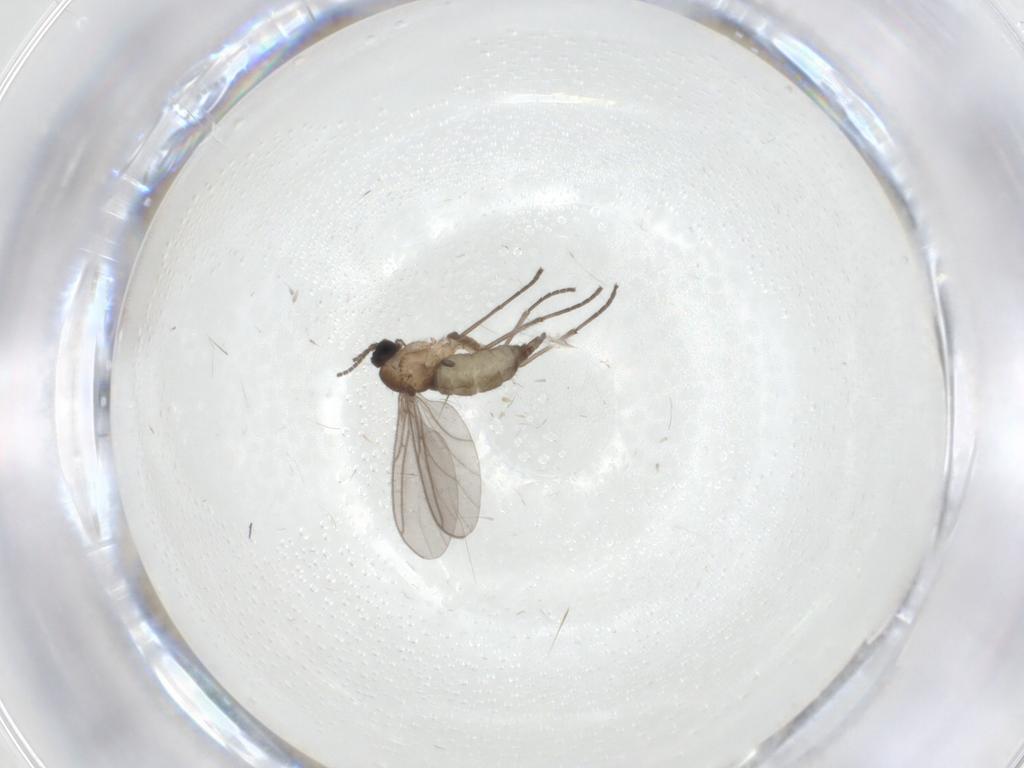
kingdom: Animalia
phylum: Arthropoda
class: Insecta
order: Diptera
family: Sciaridae
